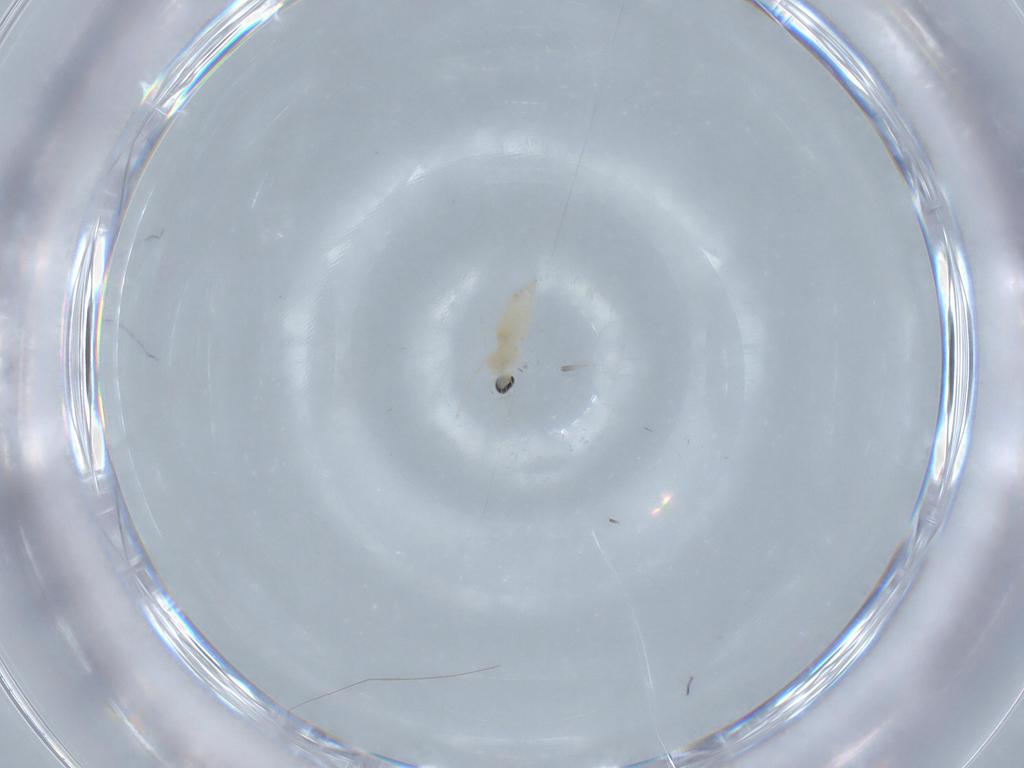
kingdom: Animalia
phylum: Arthropoda
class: Insecta
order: Diptera
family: Chironomidae
